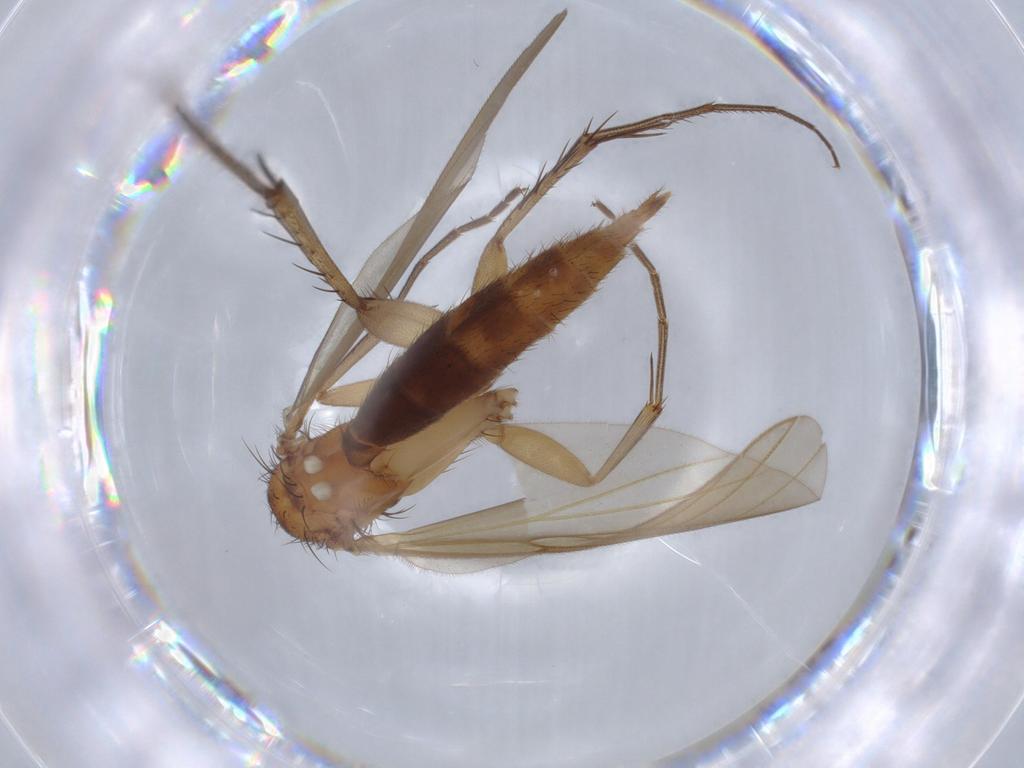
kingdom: Animalia
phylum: Arthropoda
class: Insecta
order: Diptera
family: Mycetophilidae
